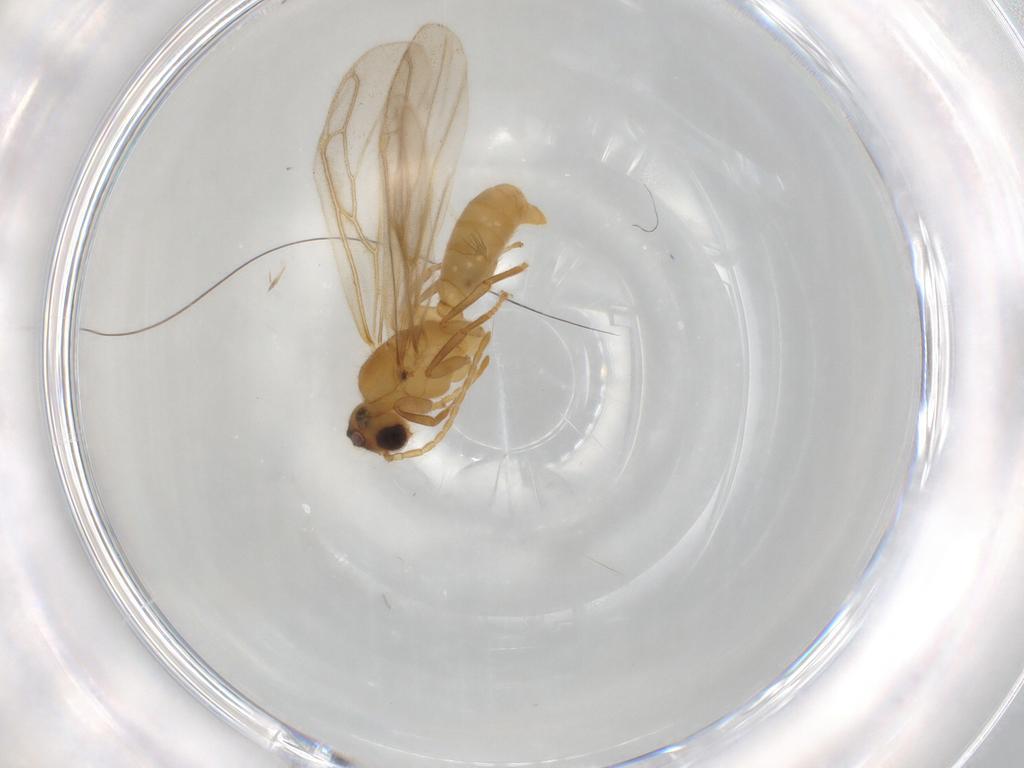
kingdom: Animalia
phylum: Arthropoda
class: Insecta
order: Hymenoptera
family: Formicidae
